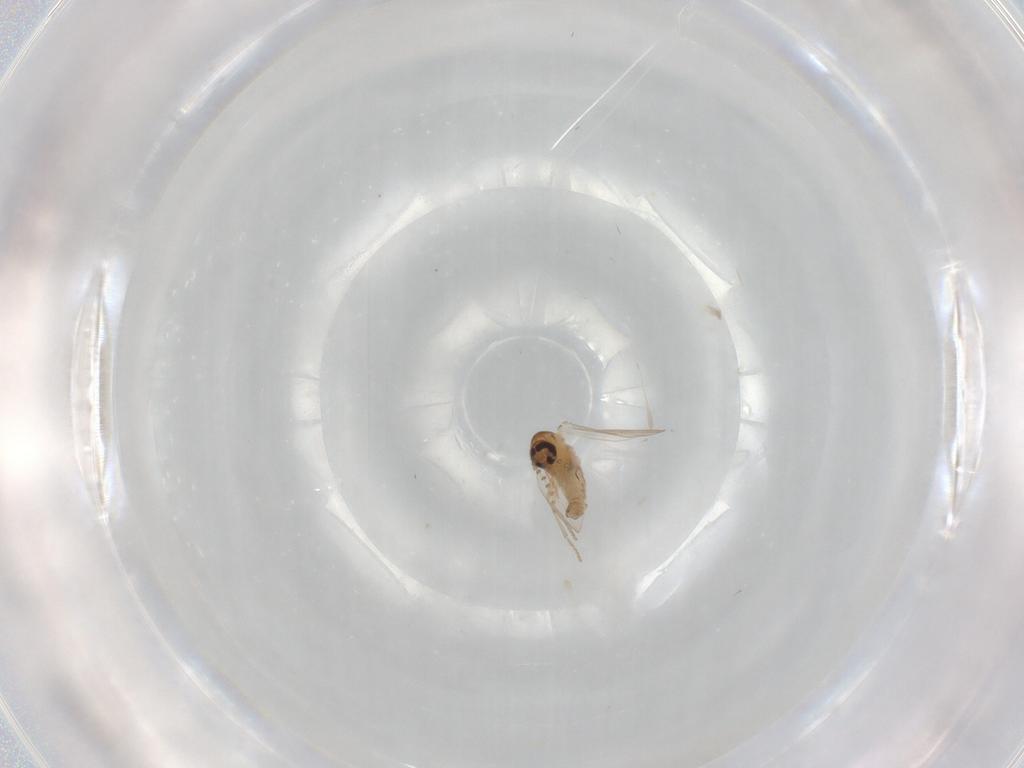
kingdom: Animalia
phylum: Arthropoda
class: Insecta
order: Diptera
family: Psychodidae
